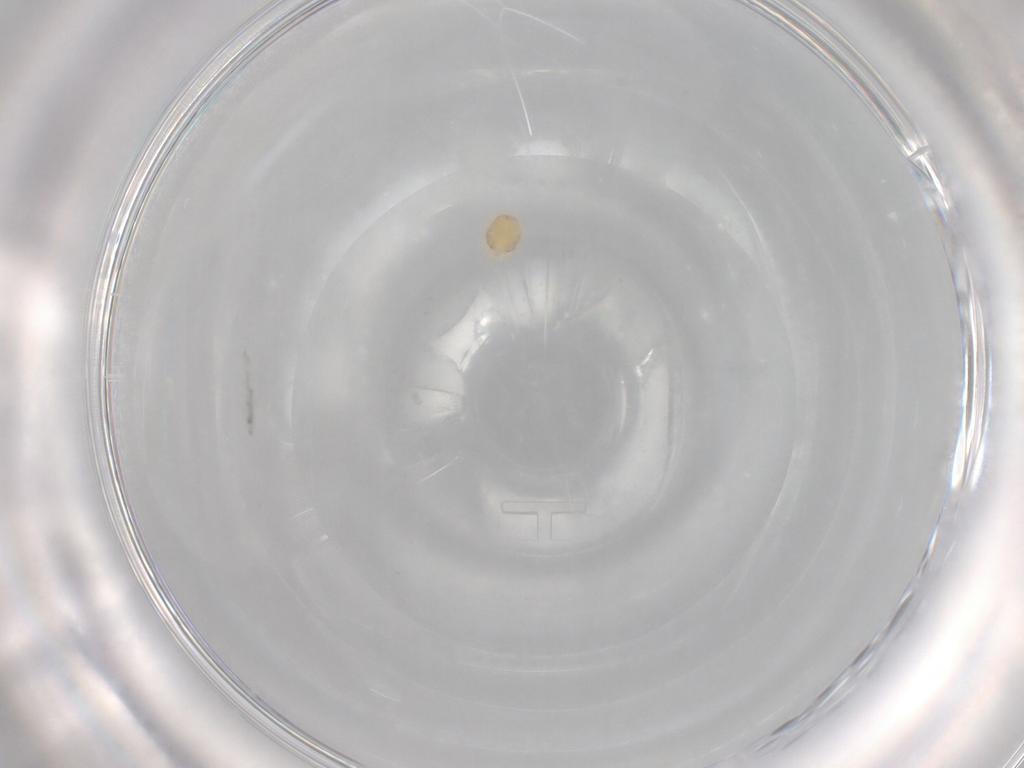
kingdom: Animalia
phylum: Arthropoda
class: Arachnida
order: Trombidiformes
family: Tetranychidae
